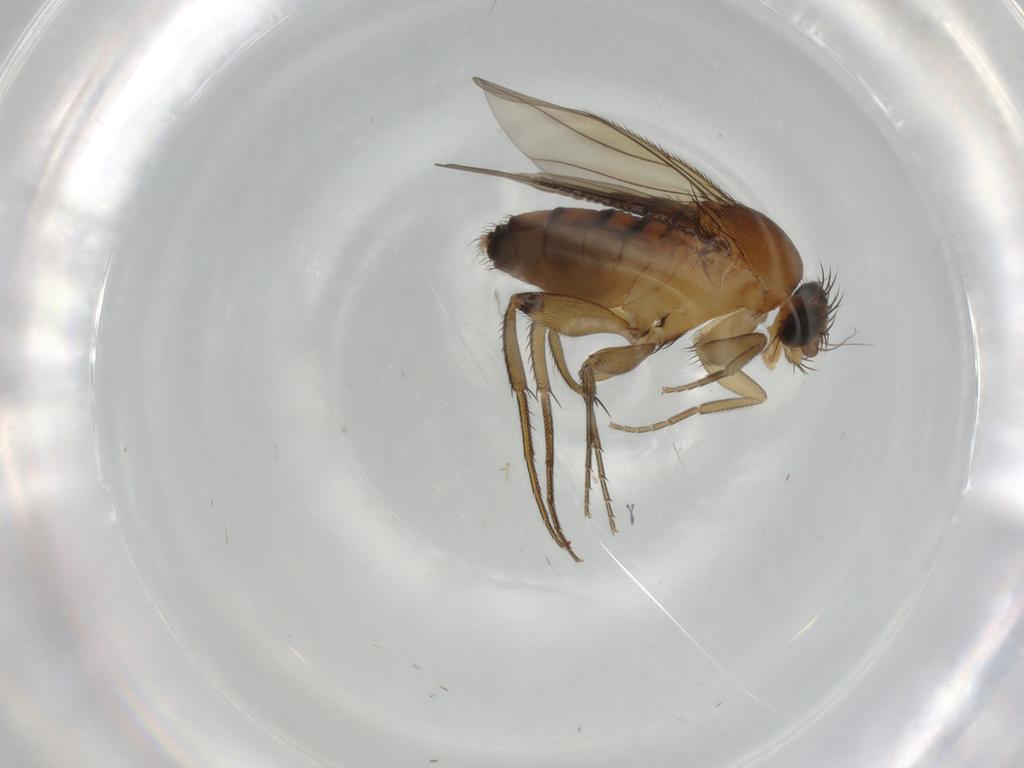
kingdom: Animalia
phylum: Arthropoda
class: Insecta
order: Diptera
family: Phoridae
